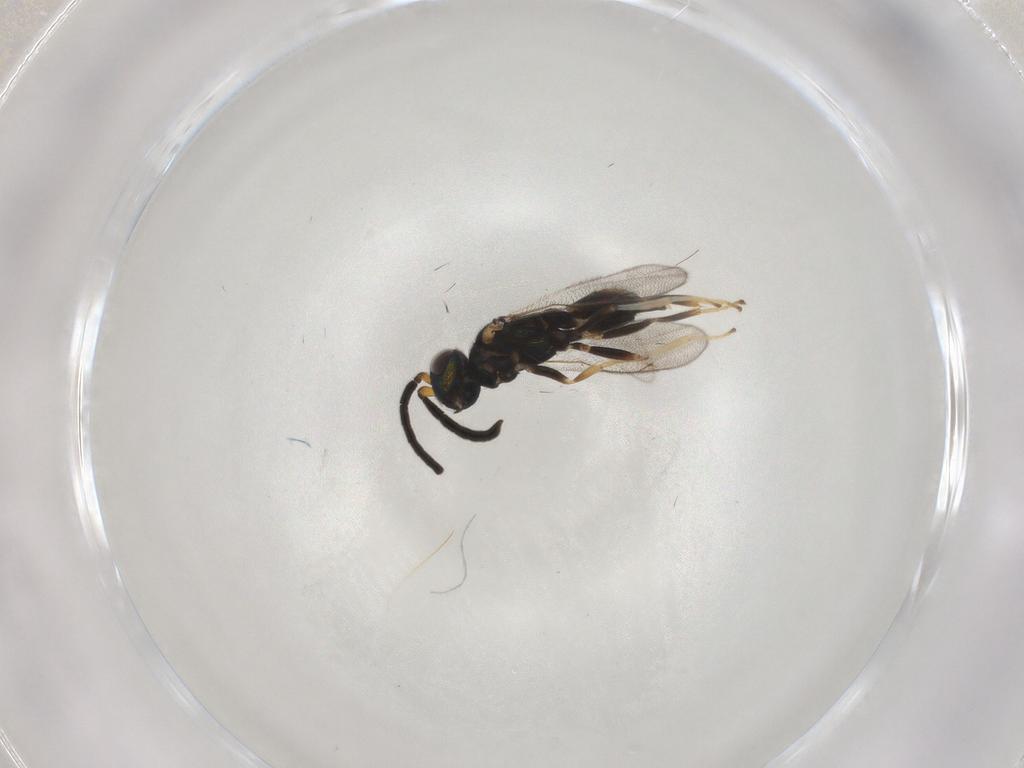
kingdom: Animalia
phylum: Arthropoda
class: Insecta
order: Hymenoptera
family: Eupelmidae
